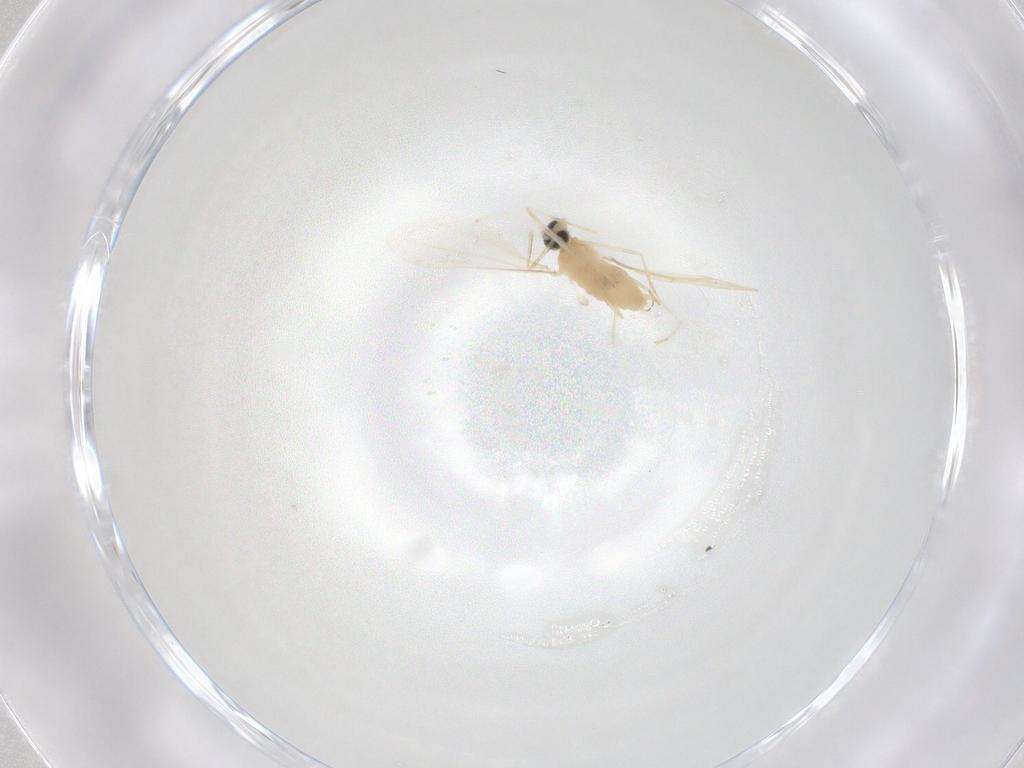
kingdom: Animalia
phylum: Arthropoda
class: Insecta
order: Diptera
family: Cecidomyiidae
